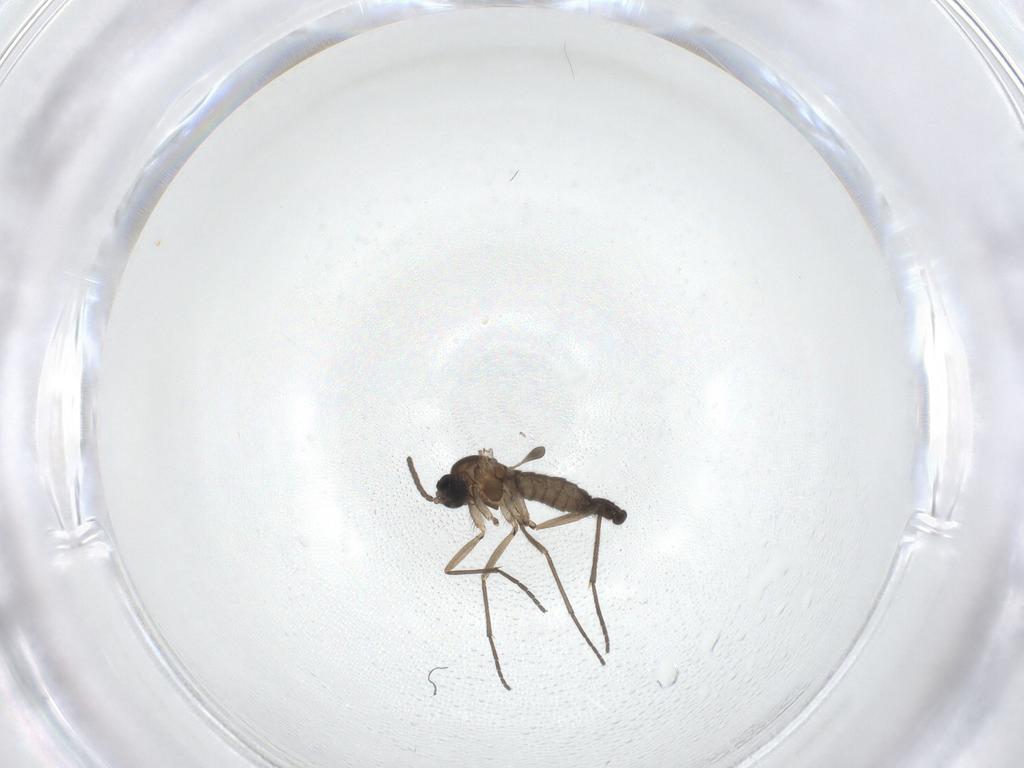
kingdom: Animalia
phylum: Arthropoda
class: Insecta
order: Diptera
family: Sciaridae
